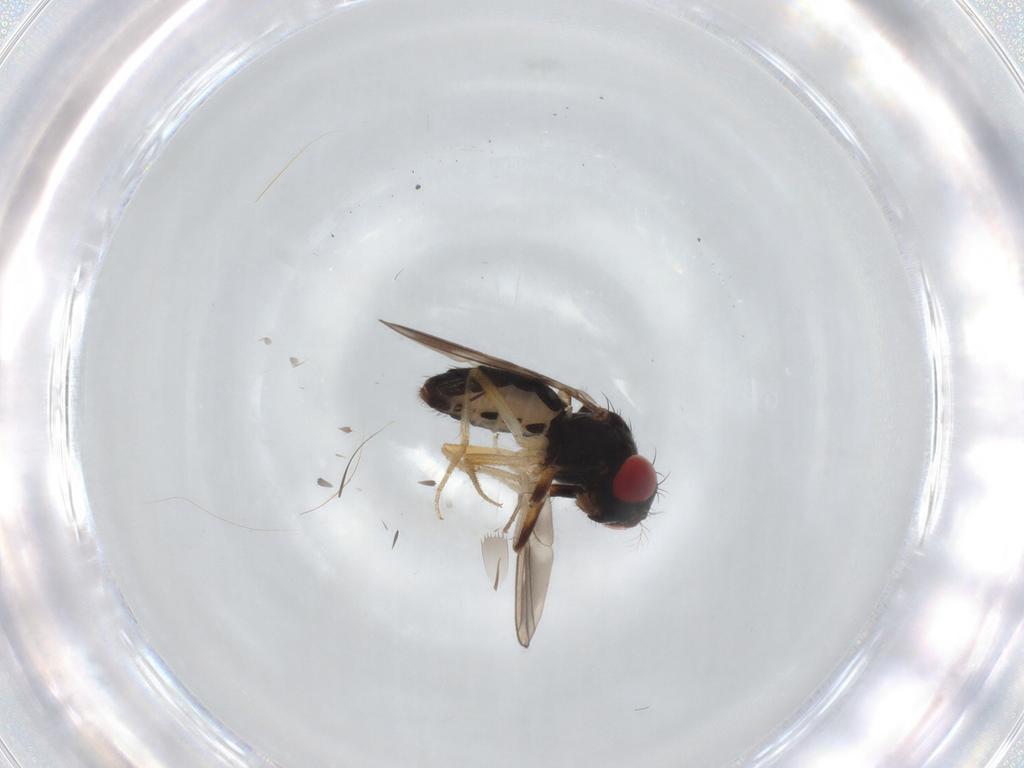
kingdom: Animalia
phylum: Arthropoda
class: Insecta
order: Diptera
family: Drosophilidae
